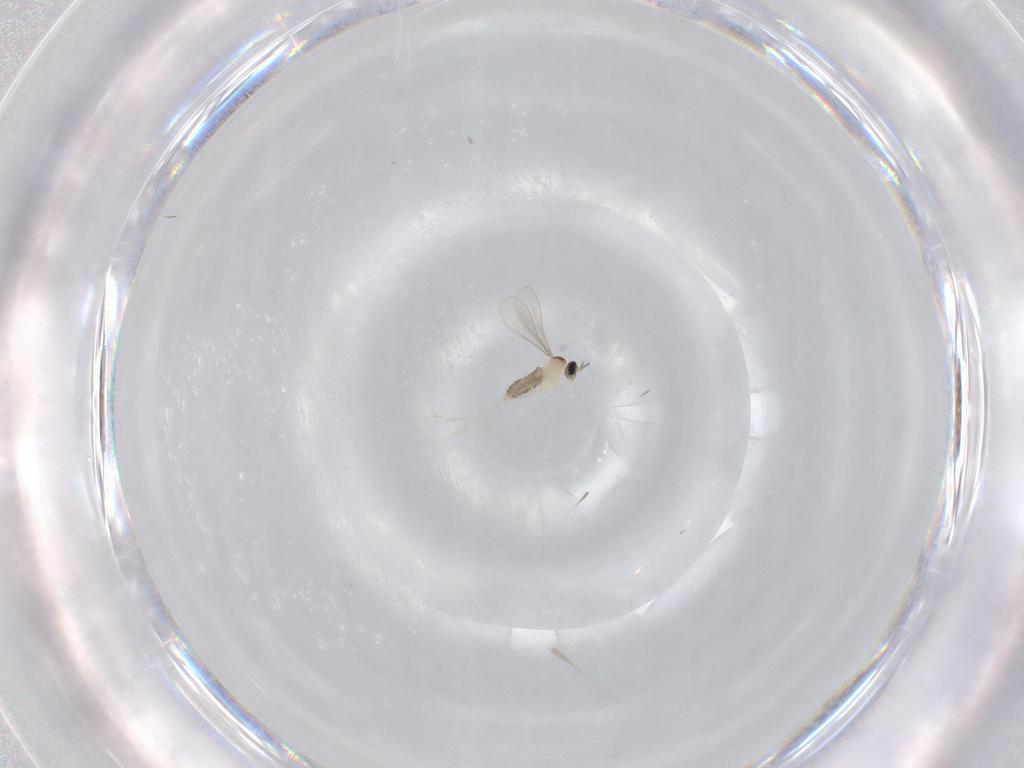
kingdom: Animalia
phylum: Arthropoda
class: Insecta
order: Diptera
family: Cecidomyiidae
